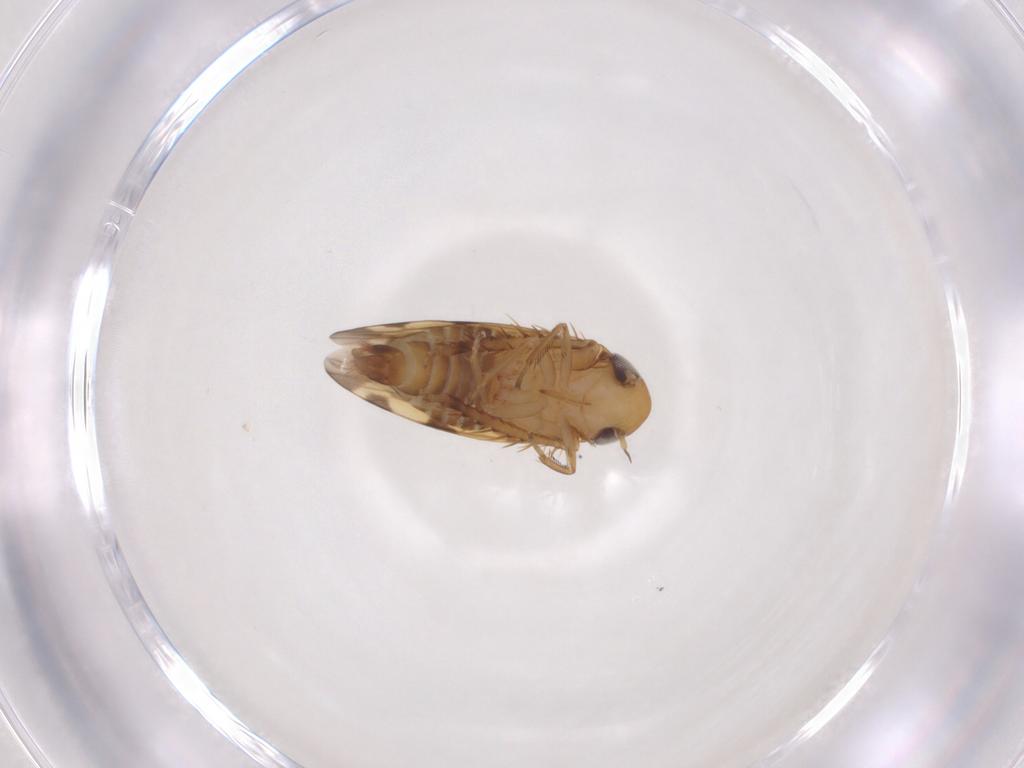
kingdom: Animalia
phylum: Arthropoda
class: Insecta
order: Hemiptera
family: Cicadellidae
